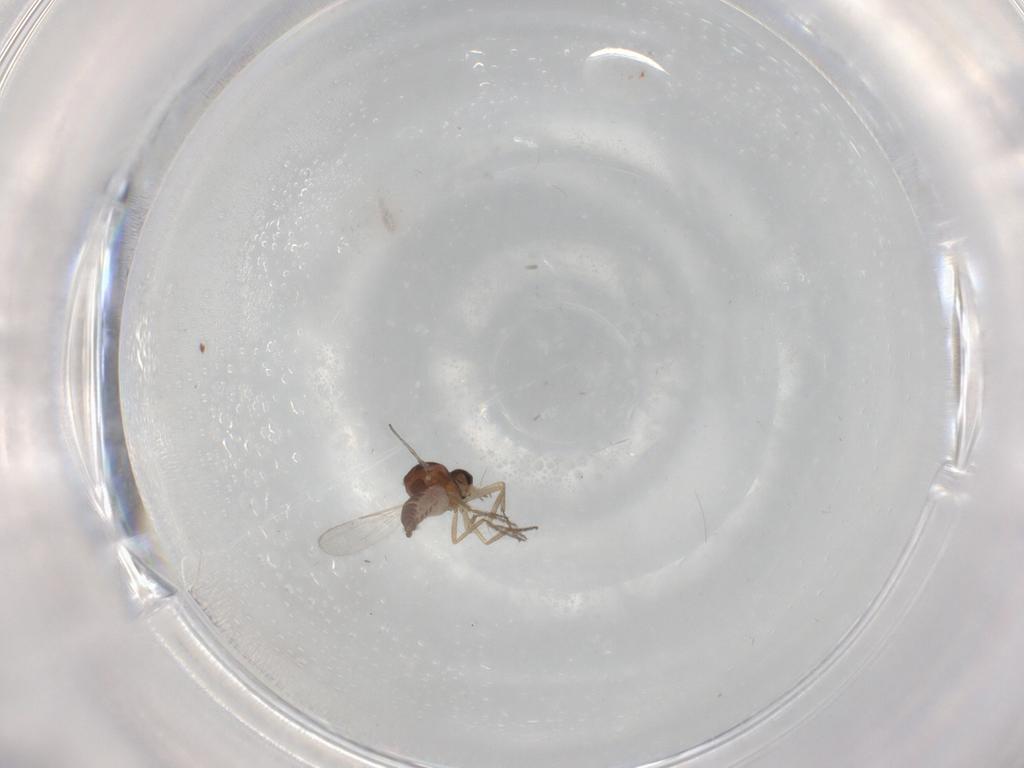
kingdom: Animalia
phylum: Arthropoda
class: Insecta
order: Diptera
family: Ceratopogonidae
